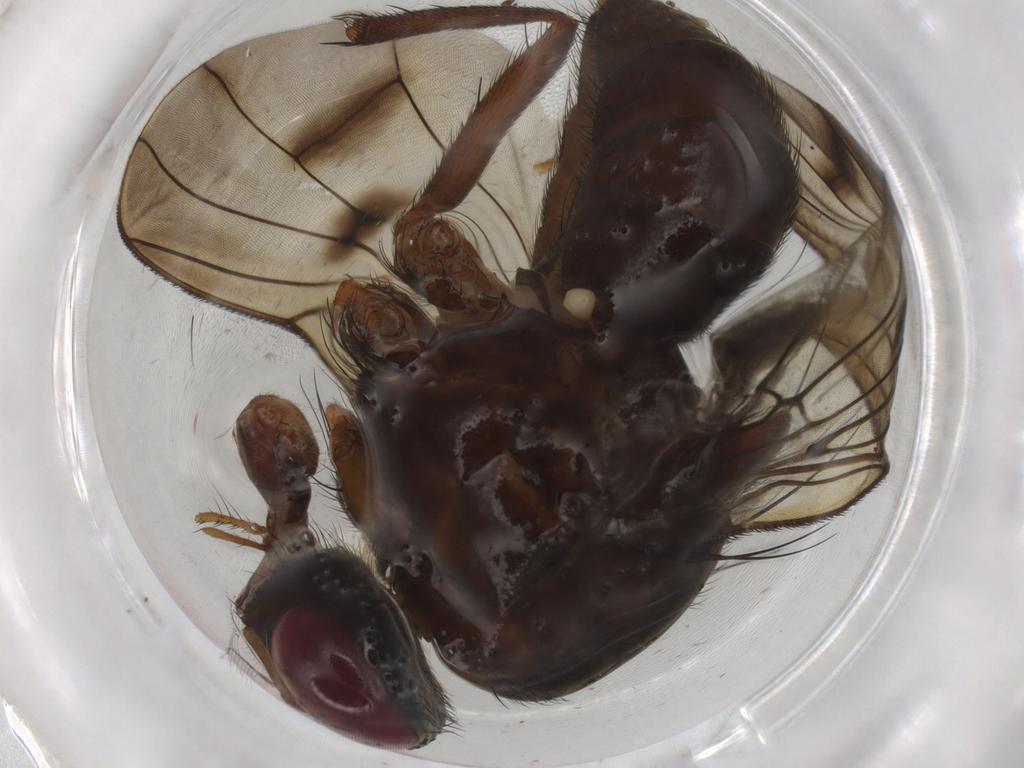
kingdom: Animalia
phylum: Arthropoda
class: Insecta
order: Diptera
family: Muscidae
